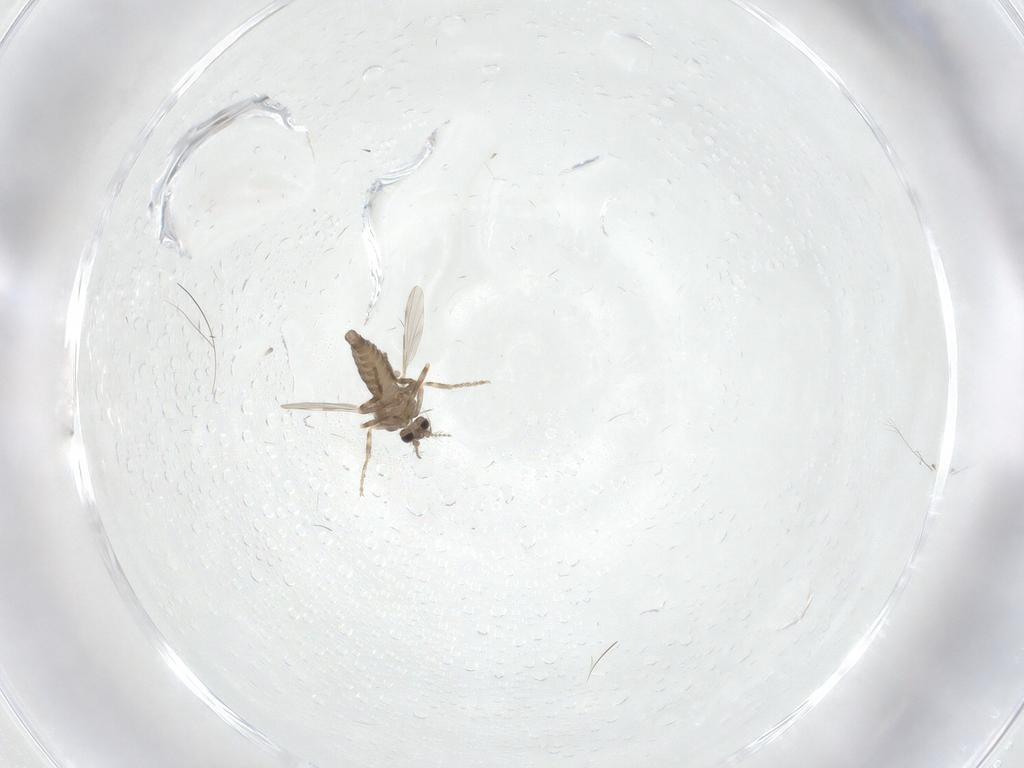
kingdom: Animalia
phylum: Arthropoda
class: Insecta
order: Diptera
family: Ceratopogonidae
